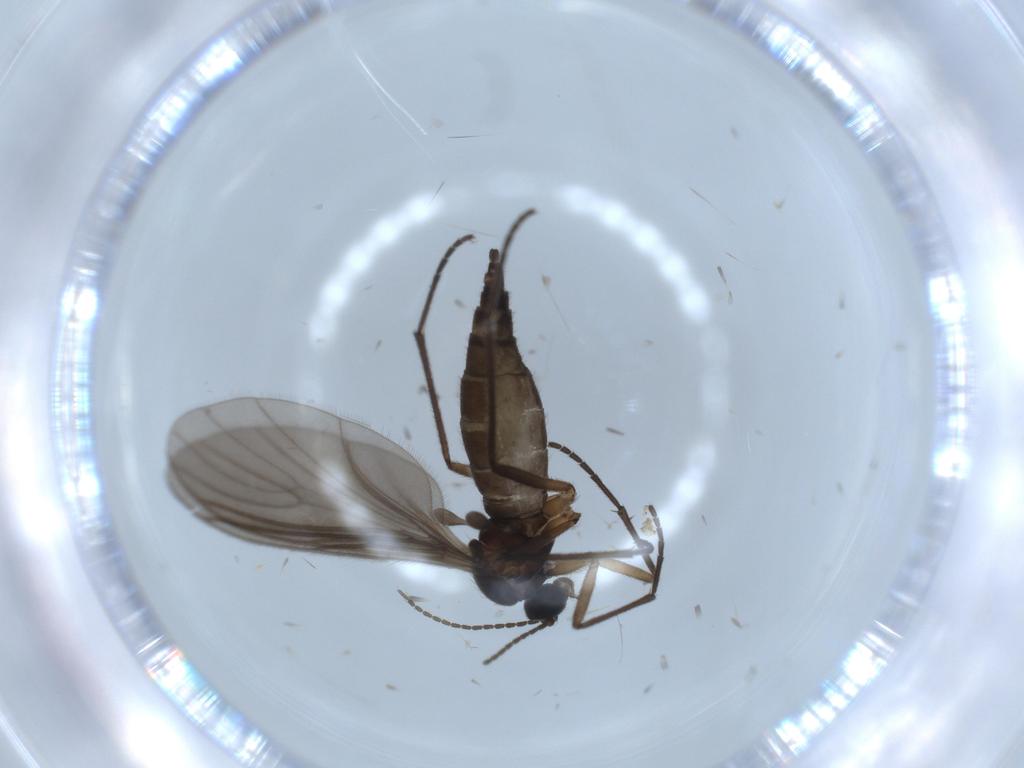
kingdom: Animalia
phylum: Arthropoda
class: Insecta
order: Diptera
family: Sciaridae
